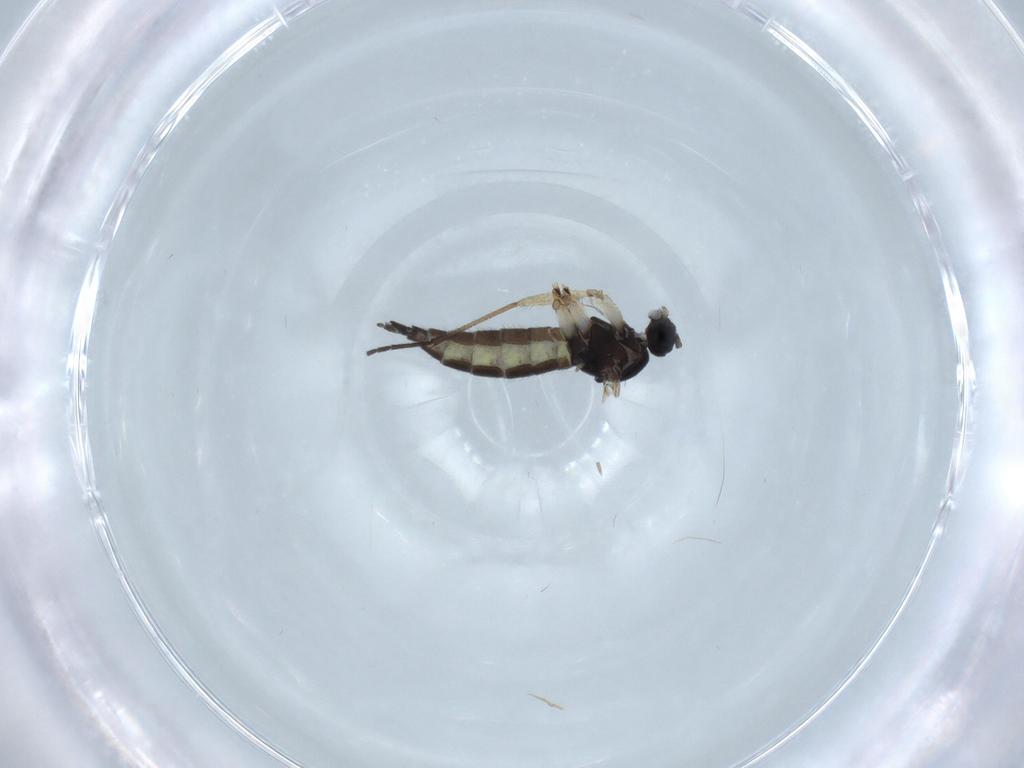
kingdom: Animalia
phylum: Arthropoda
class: Insecta
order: Diptera
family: Sciaridae
